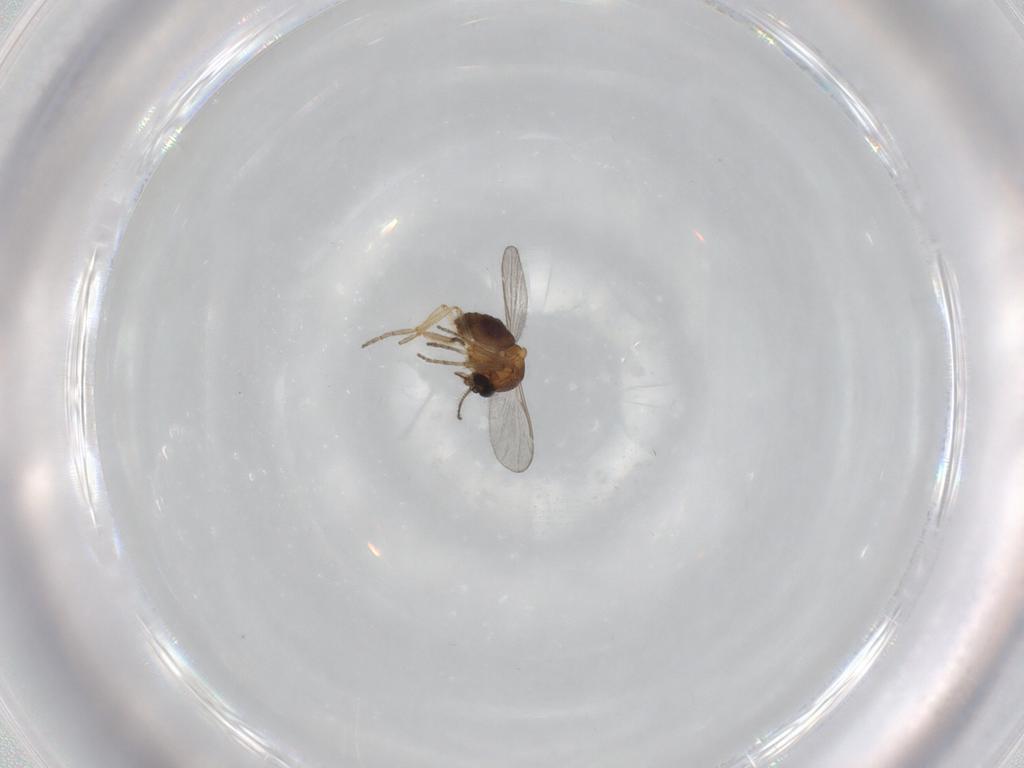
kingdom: Animalia
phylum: Arthropoda
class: Insecta
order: Diptera
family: Ceratopogonidae
